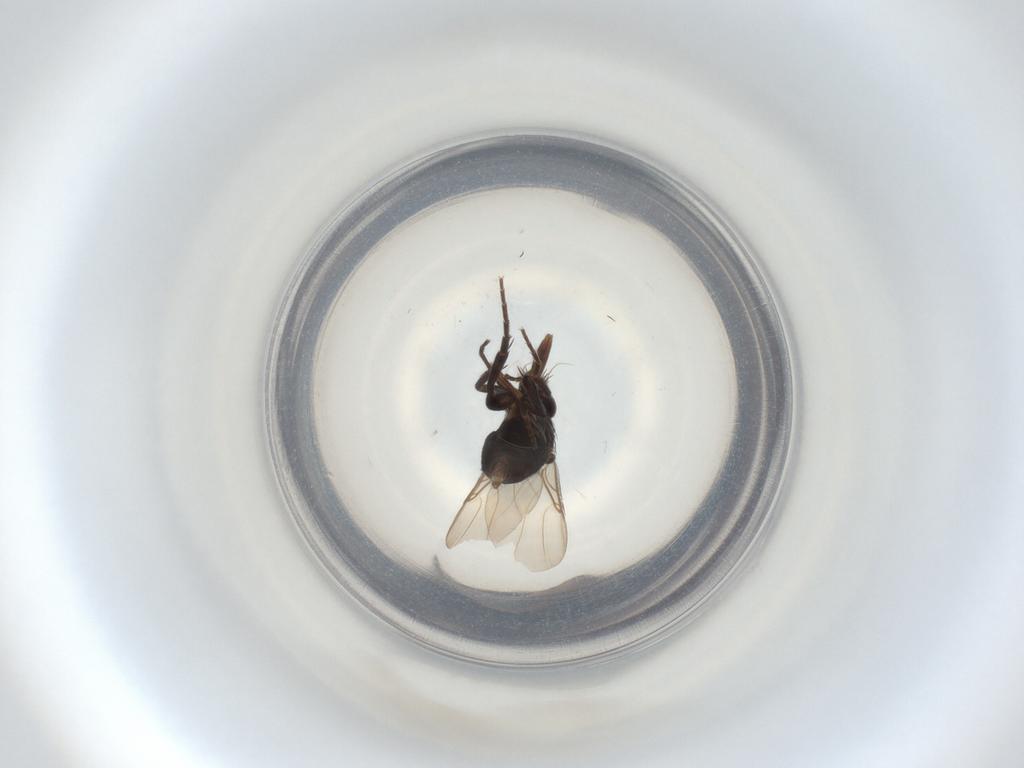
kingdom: Animalia
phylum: Arthropoda
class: Insecta
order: Diptera
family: Phoridae
